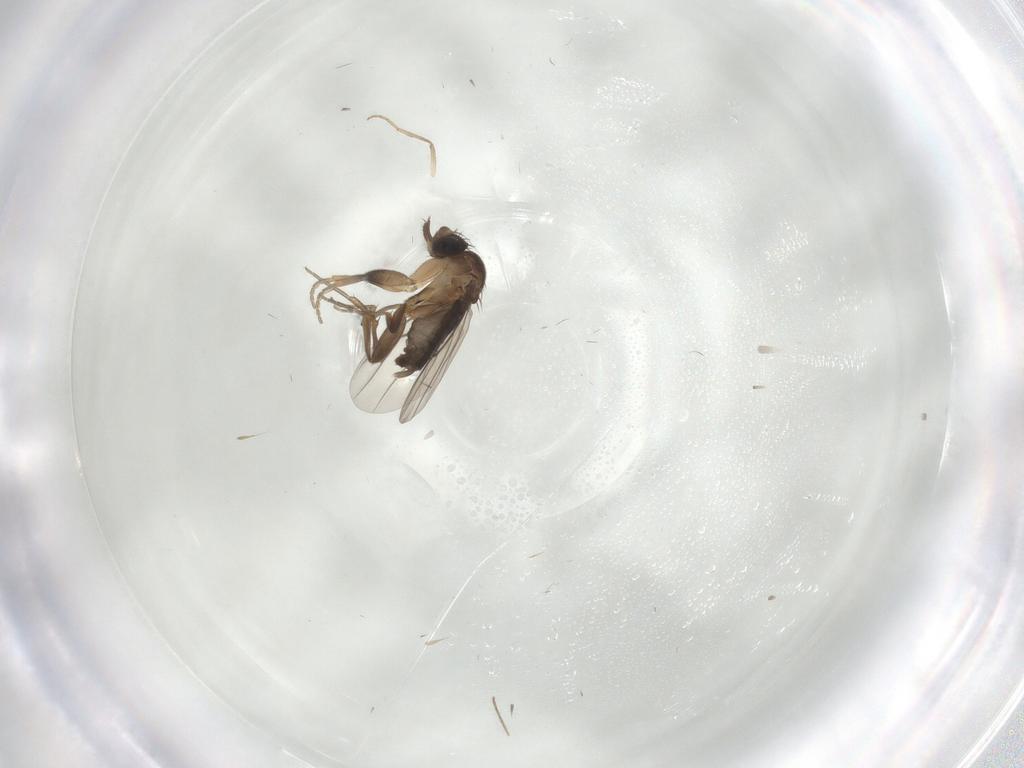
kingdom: Animalia
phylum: Arthropoda
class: Insecta
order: Diptera
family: Phoridae
